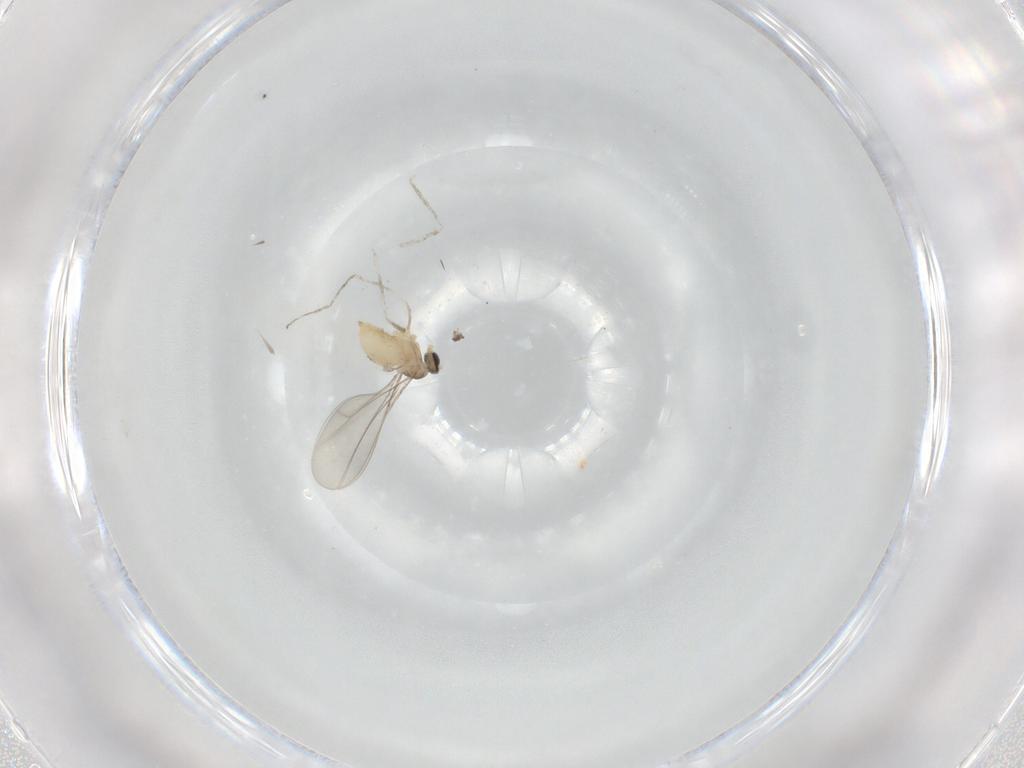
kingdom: Animalia
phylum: Arthropoda
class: Insecta
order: Diptera
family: Cecidomyiidae
